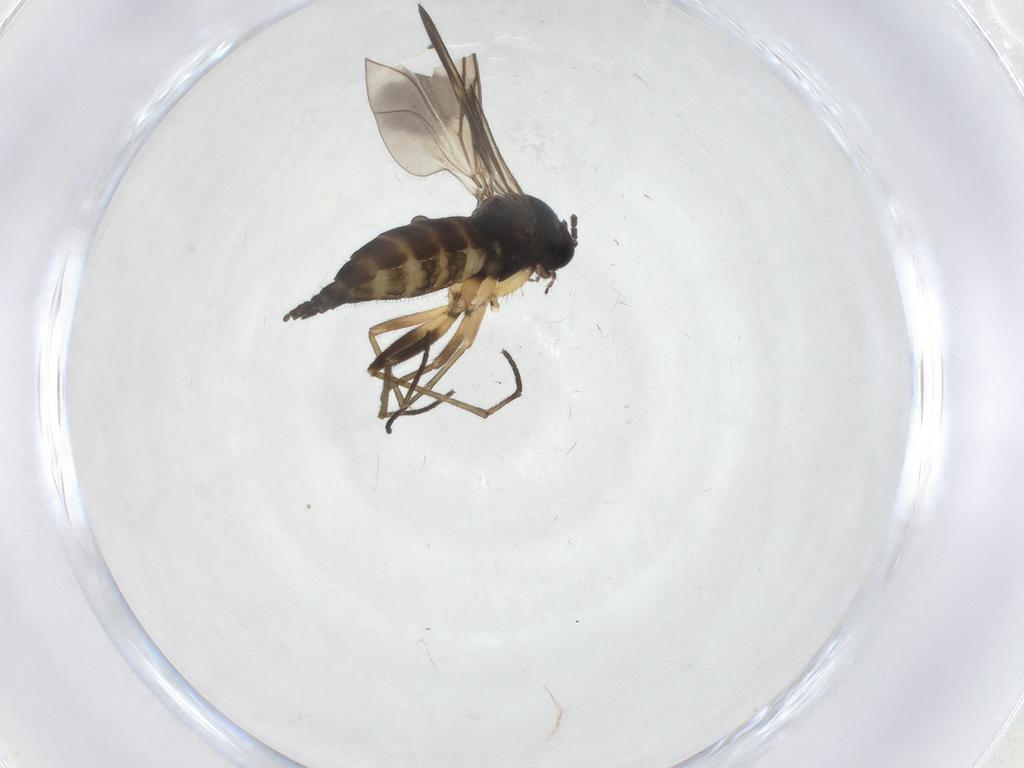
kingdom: Animalia
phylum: Arthropoda
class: Insecta
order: Diptera
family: Sciaridae
